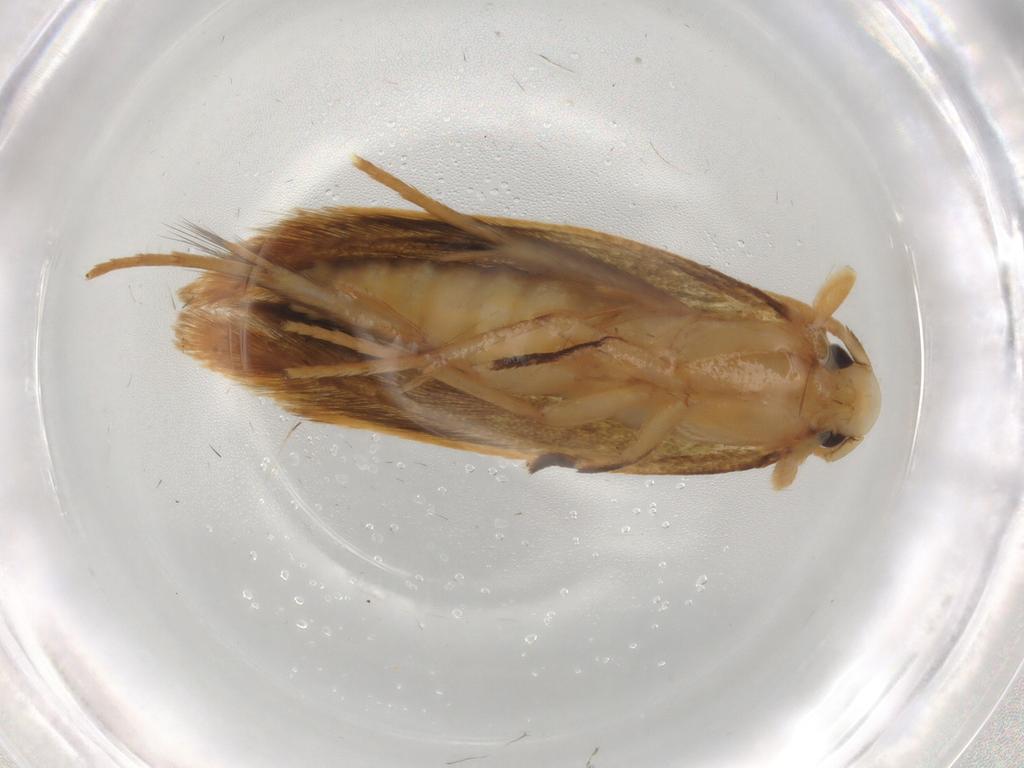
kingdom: Animalia
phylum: Arthropoda
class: Insecta
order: Lepidoptera
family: Tineidae
